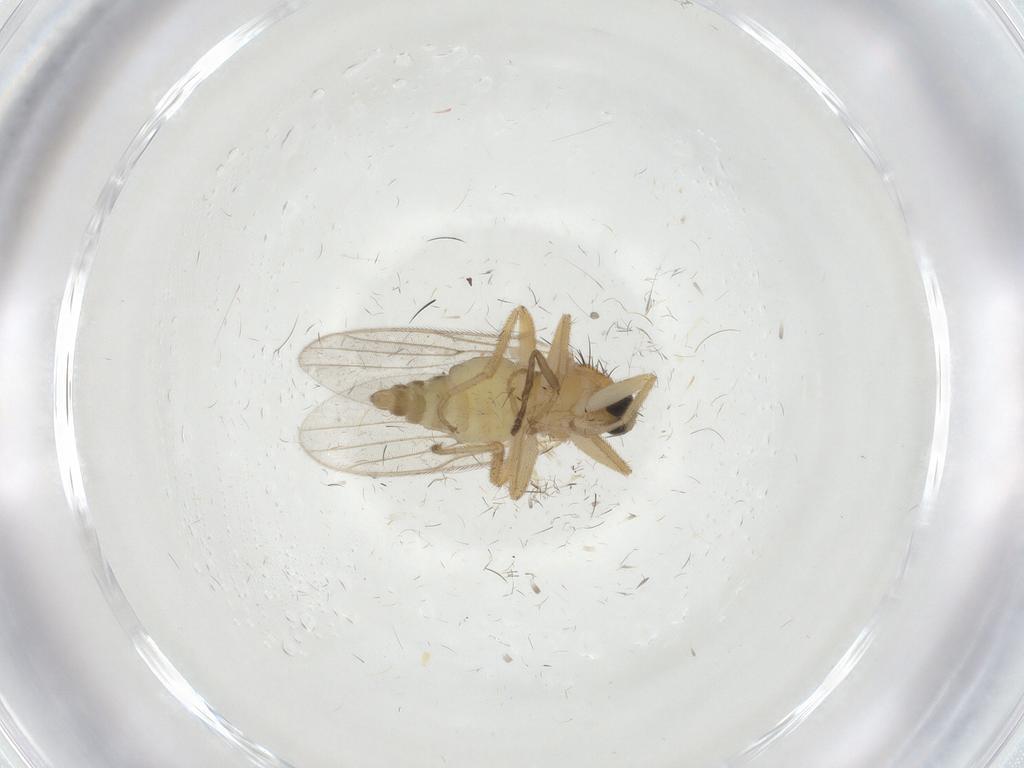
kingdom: Animalia
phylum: Arthropoda
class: Insecta
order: Diptera
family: Hybotidae
